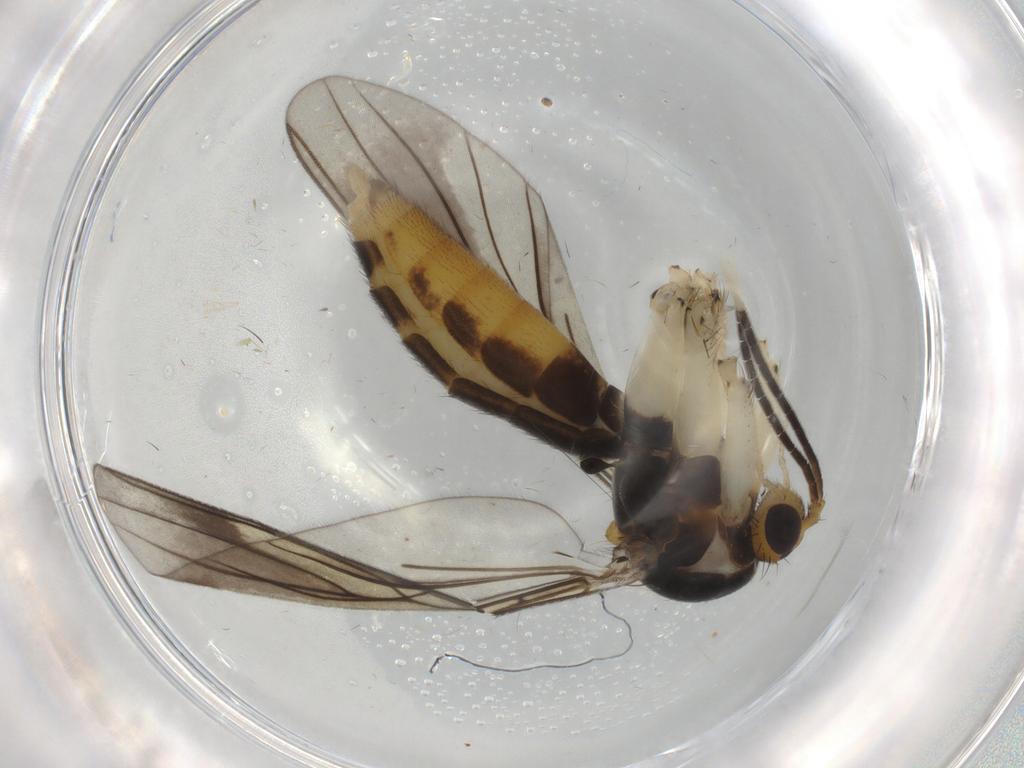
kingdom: Animalia
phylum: Arthropoda
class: Insecta
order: Diptera
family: Mycetophilidae
